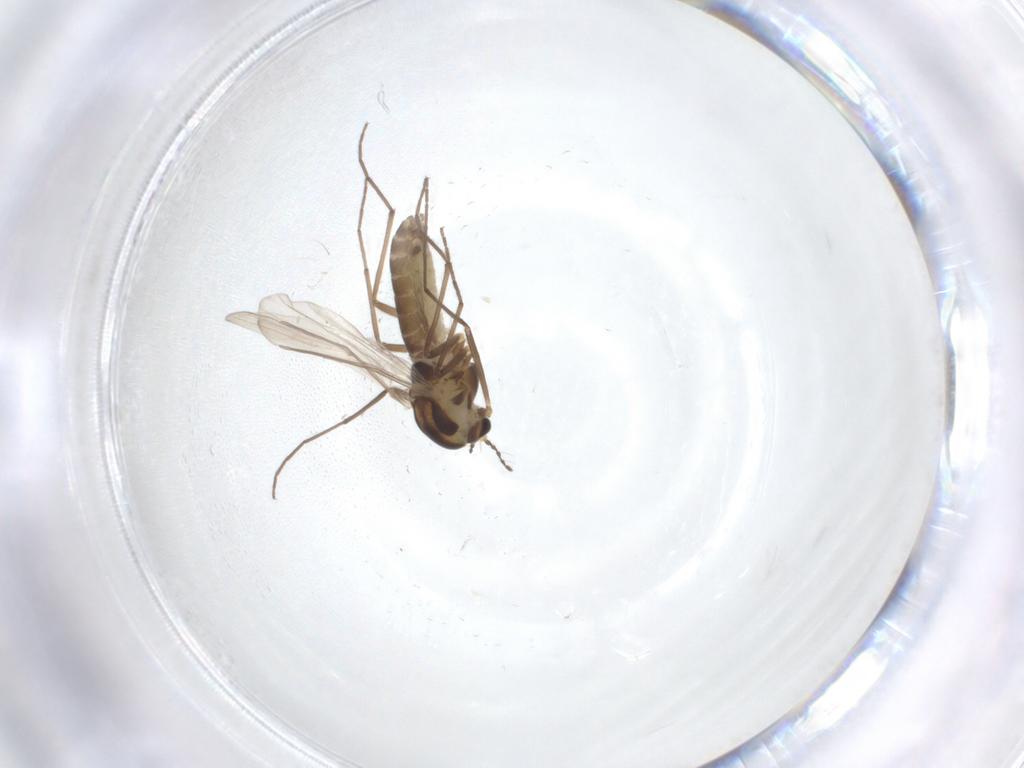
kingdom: Animalia
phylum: Arthropoda
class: Insecta
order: Diptera
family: Chironomidae
